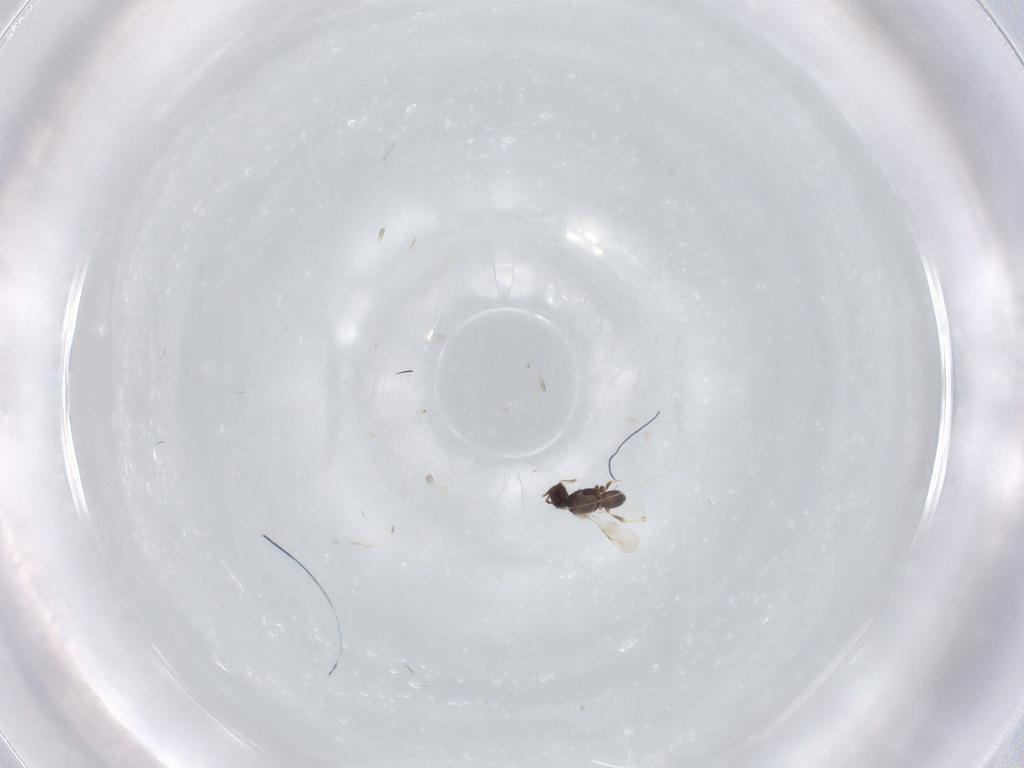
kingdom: Animalia
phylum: Arthropoda
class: Insecta
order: Hymenoptera
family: Ceraphronidae
